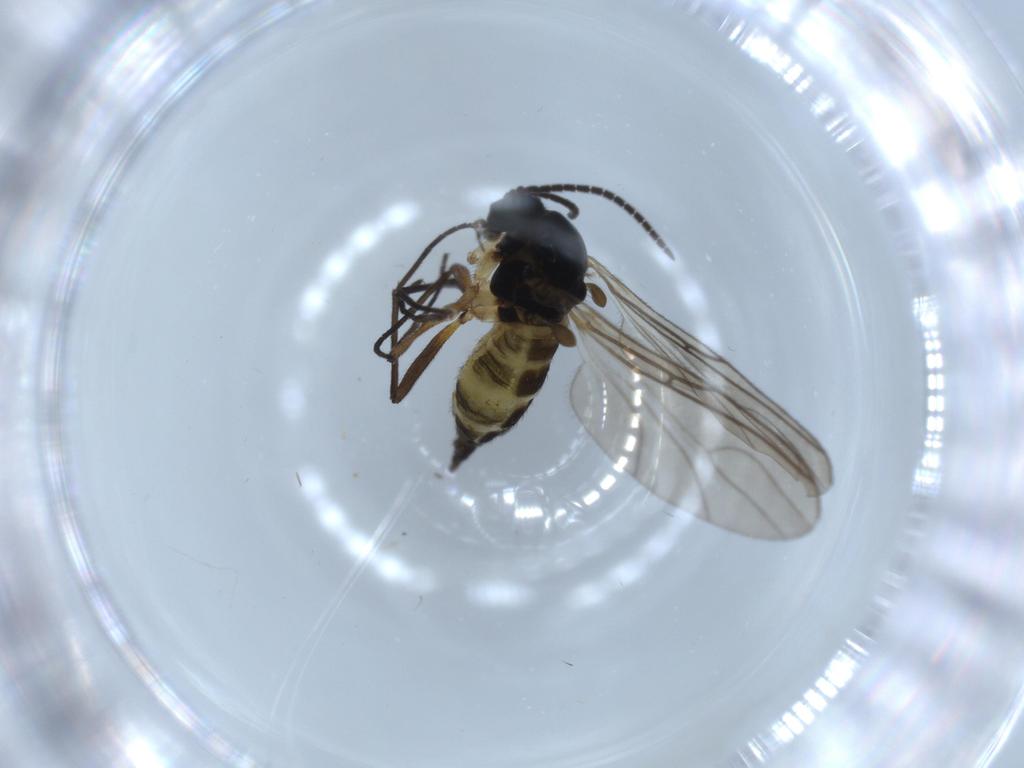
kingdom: Animalia
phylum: Arthropoda
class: Insecta
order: Diptera
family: Sciaridae
